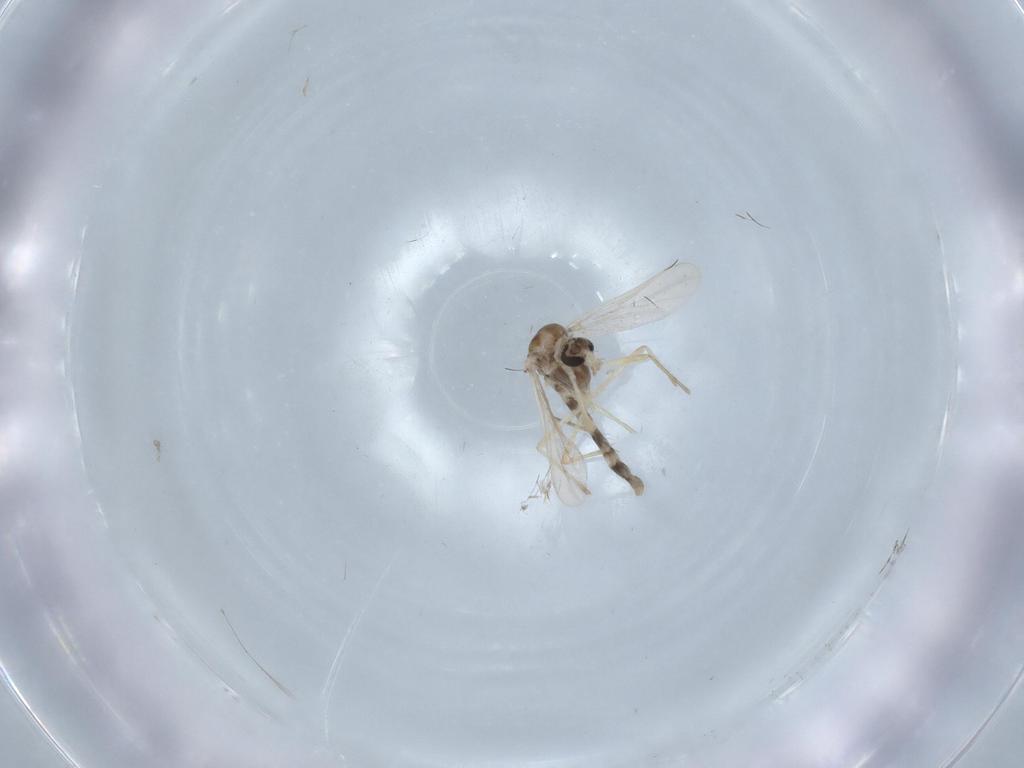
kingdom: Animalia
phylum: Arthropoda
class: Insecta
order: Diptera
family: Chironomidae
